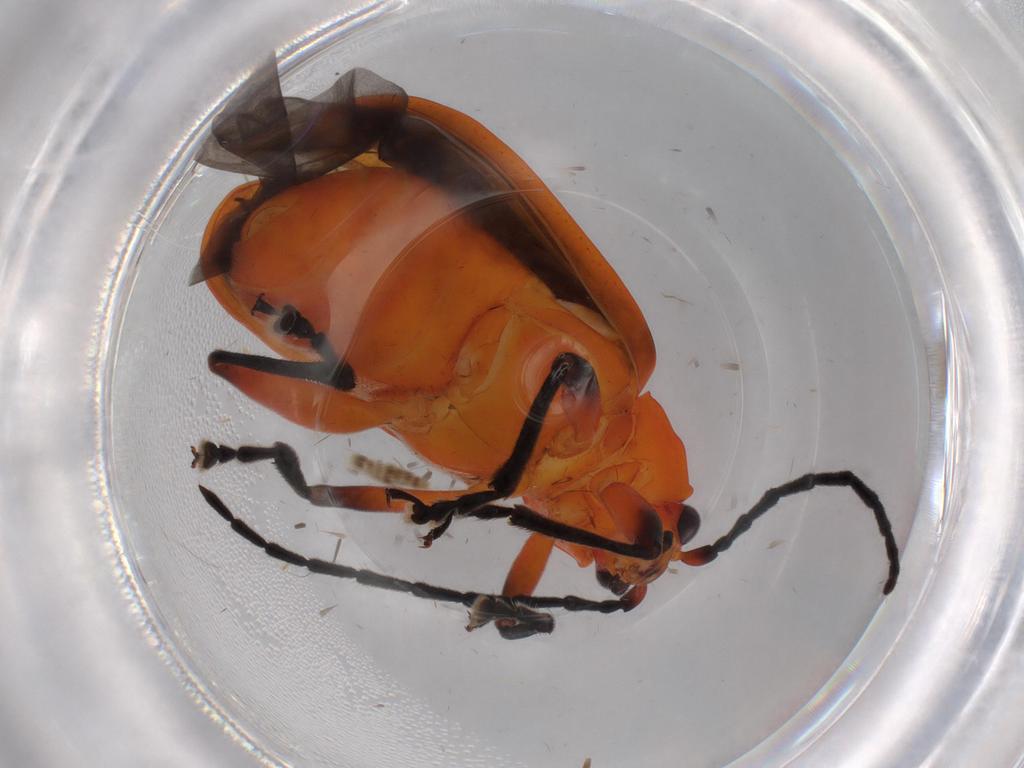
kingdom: Animalia
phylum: Arthropoda
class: Insecta
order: Coleoptera
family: Chrysomelidae
